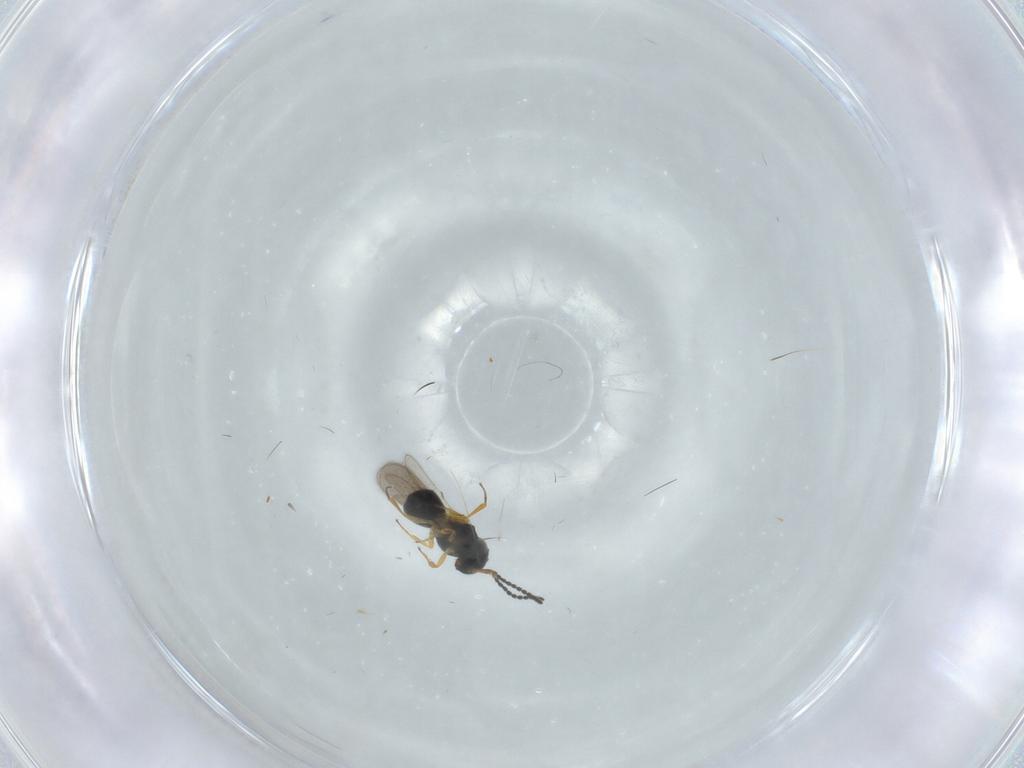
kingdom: Animalia
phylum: Arthropoda
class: Insecta
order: Hymenoptera
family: Scelionidae
